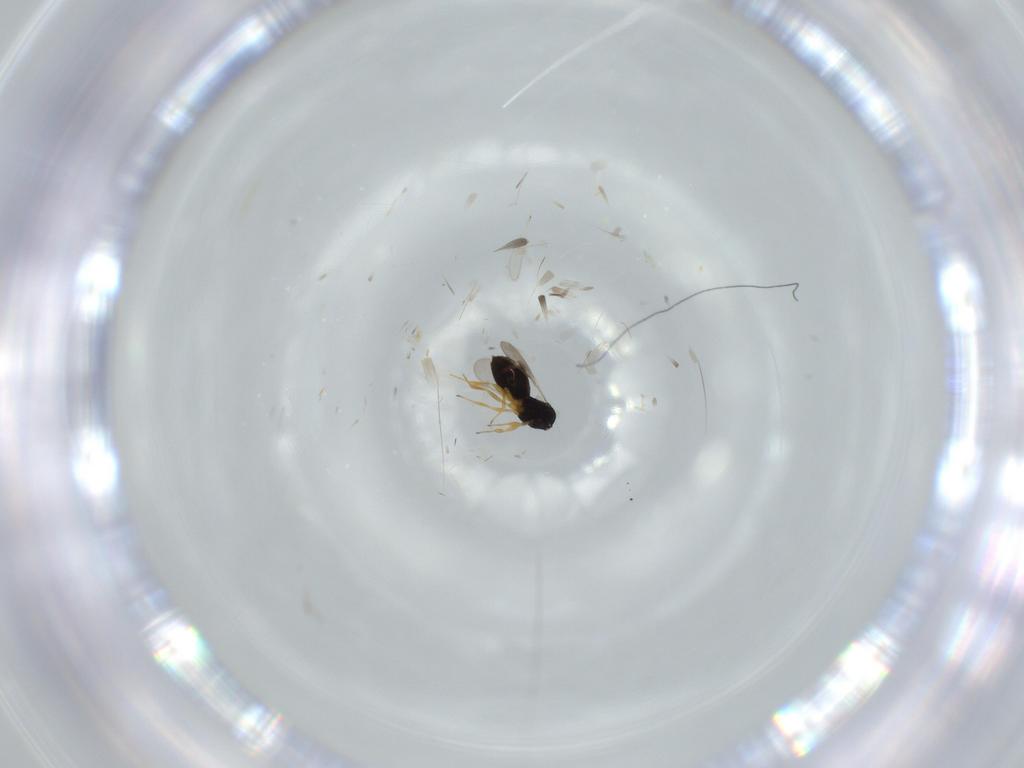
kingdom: Animalia
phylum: Arthropoda
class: Insecta
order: Hymenoptera
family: Scelionidae
